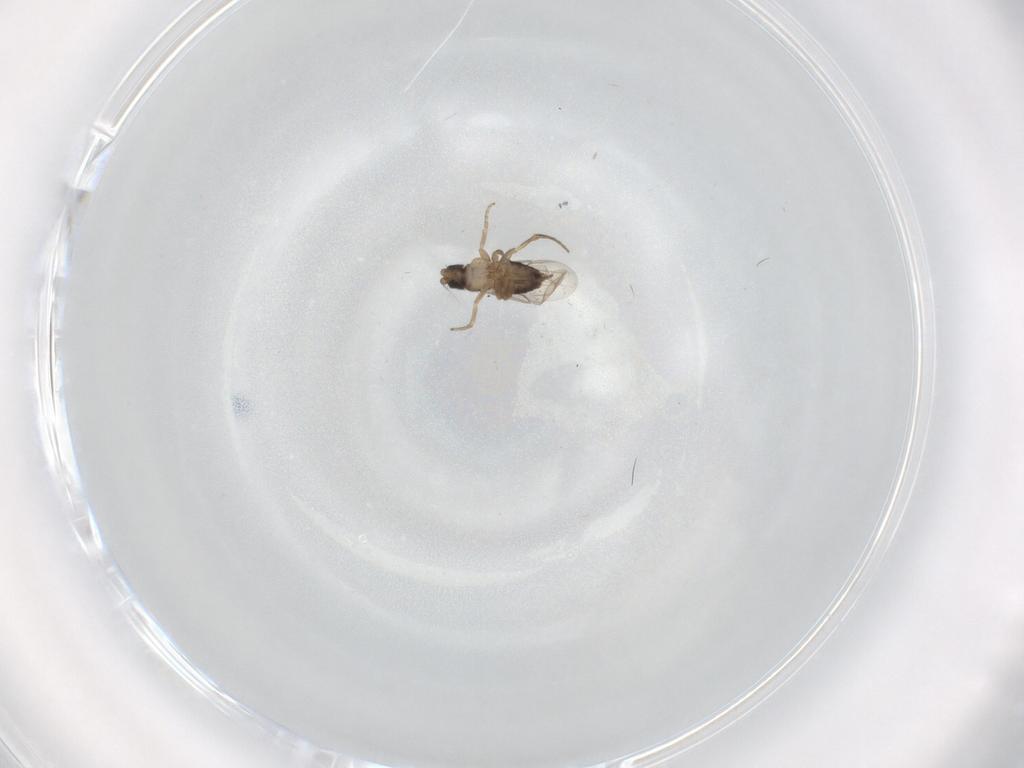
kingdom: Animalia
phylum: Arthropoda
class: Insecta
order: Diptera
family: Phoridae
